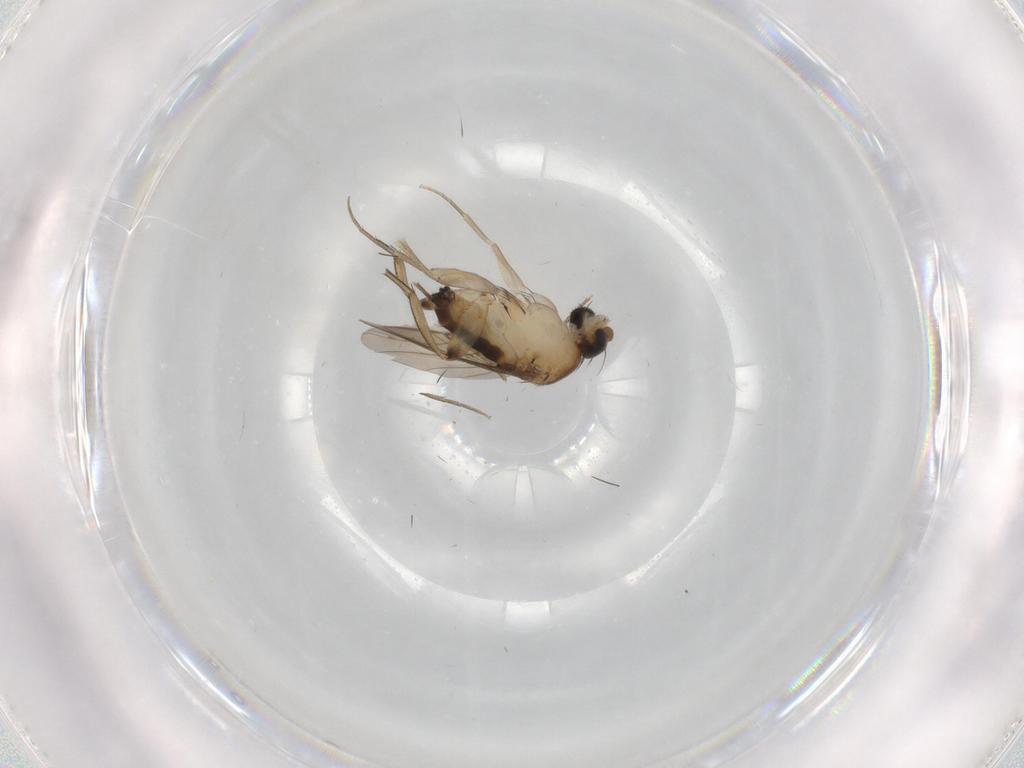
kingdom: Animalia
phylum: Arthropoda
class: Insecta
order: Diptera
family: Phoridae
